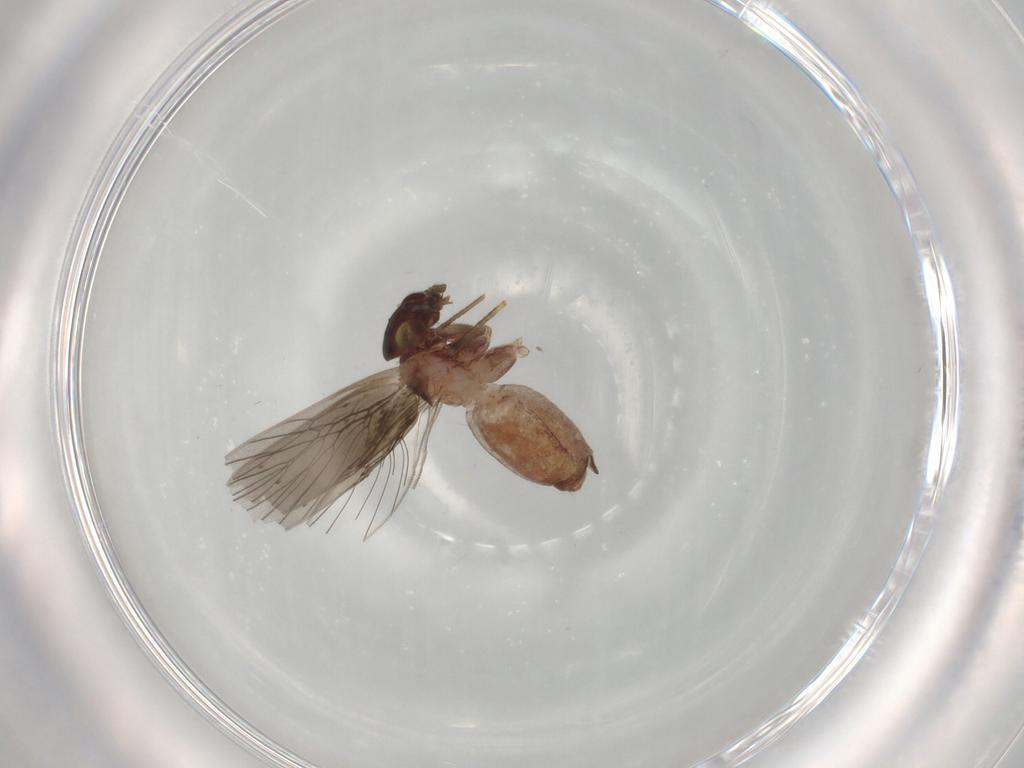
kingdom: Animalia
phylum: Arthropoda
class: Insecta
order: Psocodea
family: Lepidopsocidae
